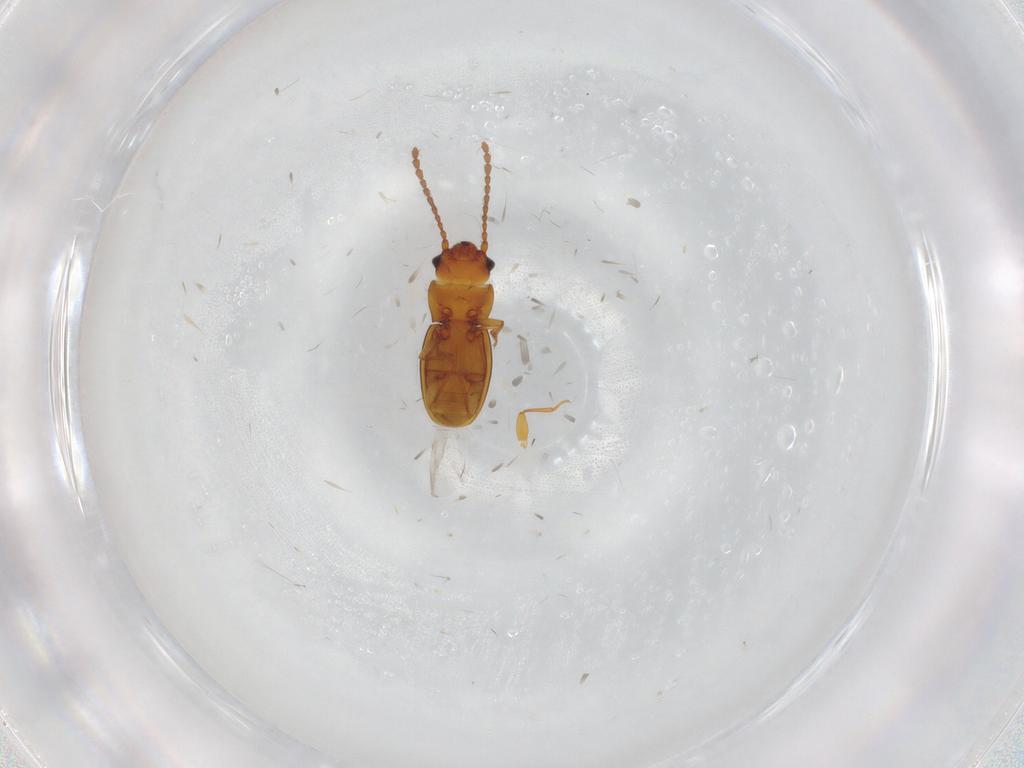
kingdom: Animalia
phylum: Arthropoda
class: Insecta
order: Coleoptera
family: Laemophloeidae
